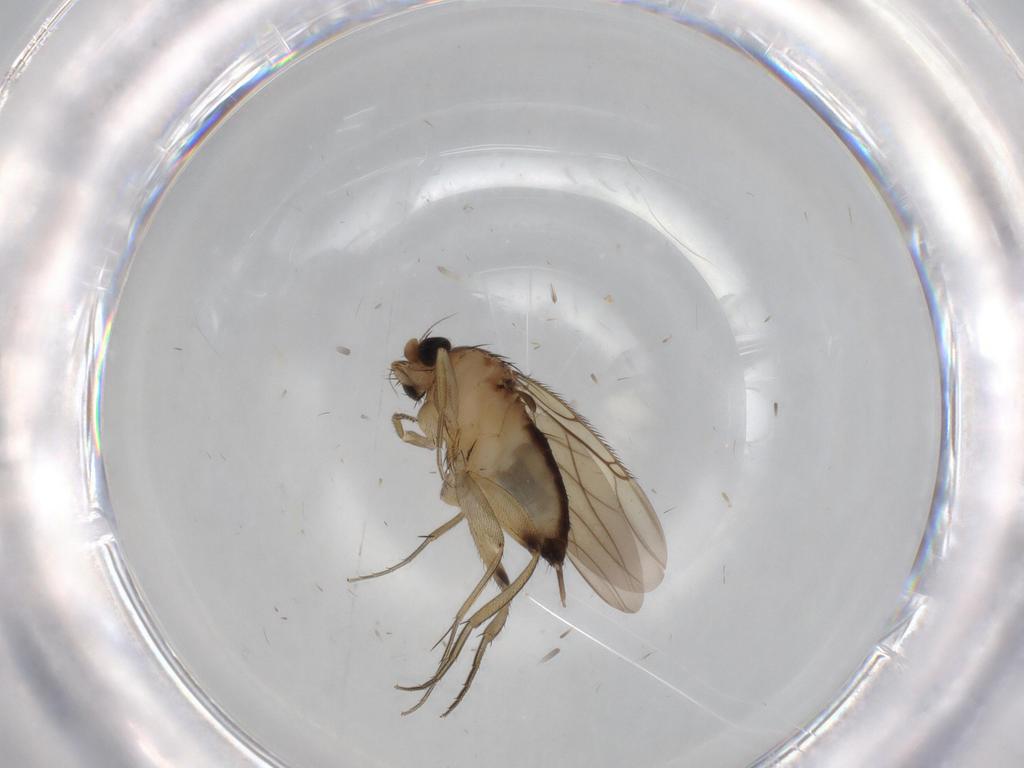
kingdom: Animalia
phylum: Arthropoda
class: Insecta
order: Diptera
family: Phoridae
